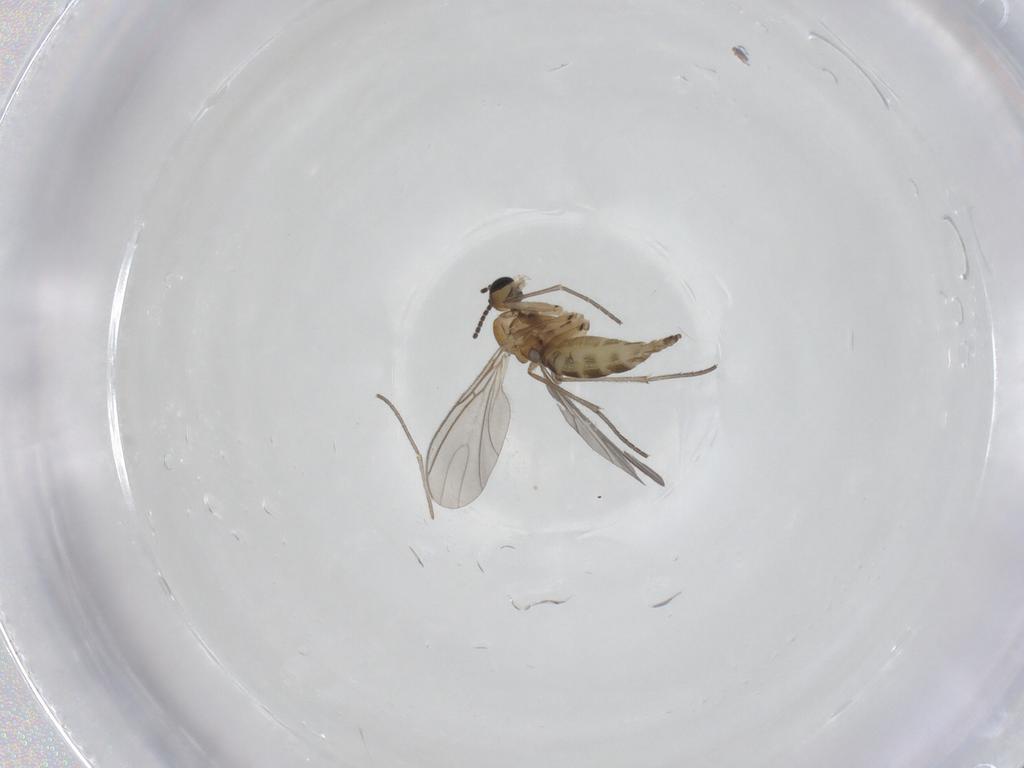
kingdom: Animalia
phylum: Arthropoda
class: Insecta
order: Diptera
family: Sciaridae
